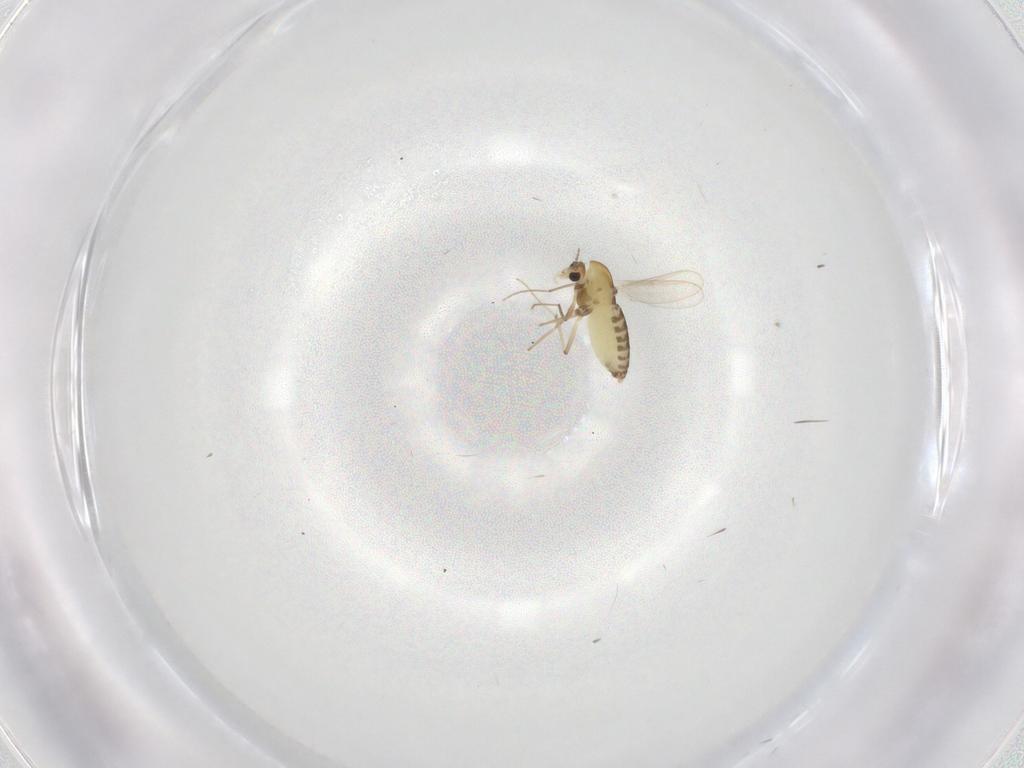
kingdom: Animalia
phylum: Arthropoda
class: Insecta
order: Diptera
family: Chironomidae
